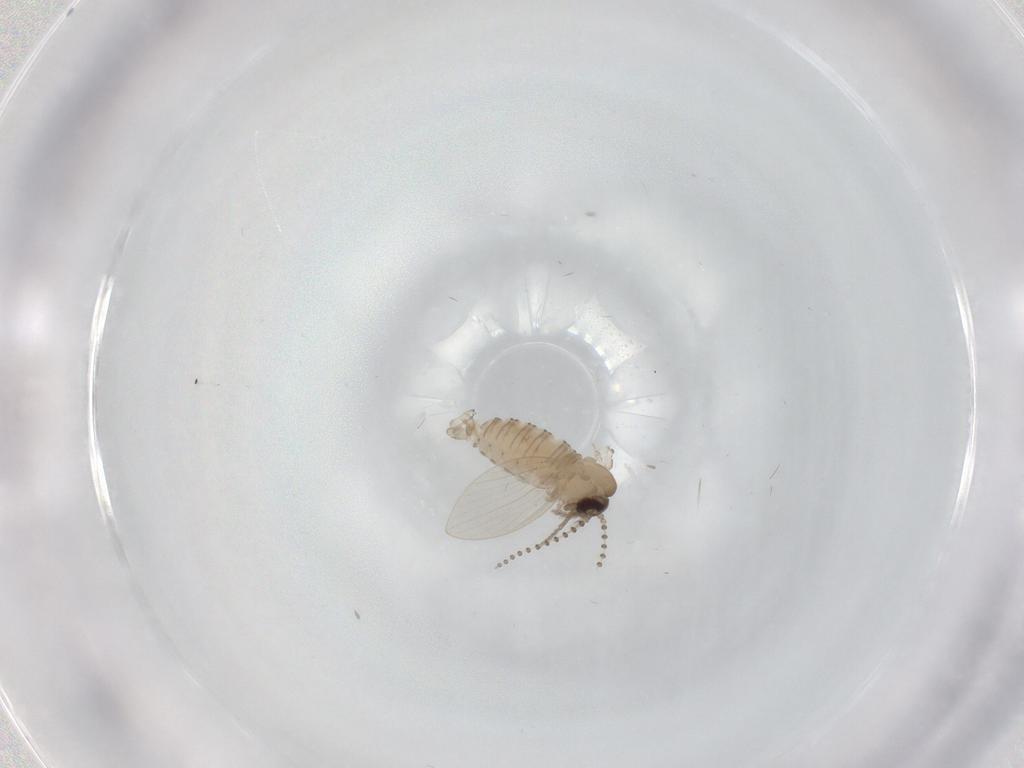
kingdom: Animalia
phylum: Arthropoda
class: Insecta
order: Diptera
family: Psychodidae
